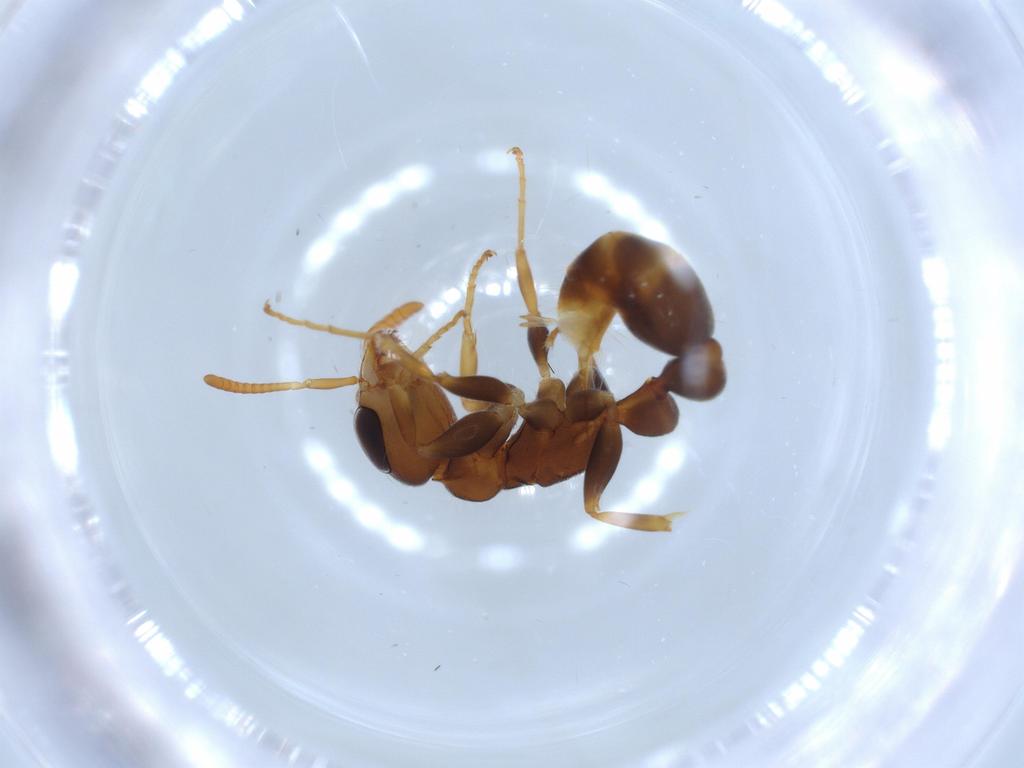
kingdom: Animalia
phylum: Arthropoda
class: Insecta
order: Hymenoptera
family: Formicidae
